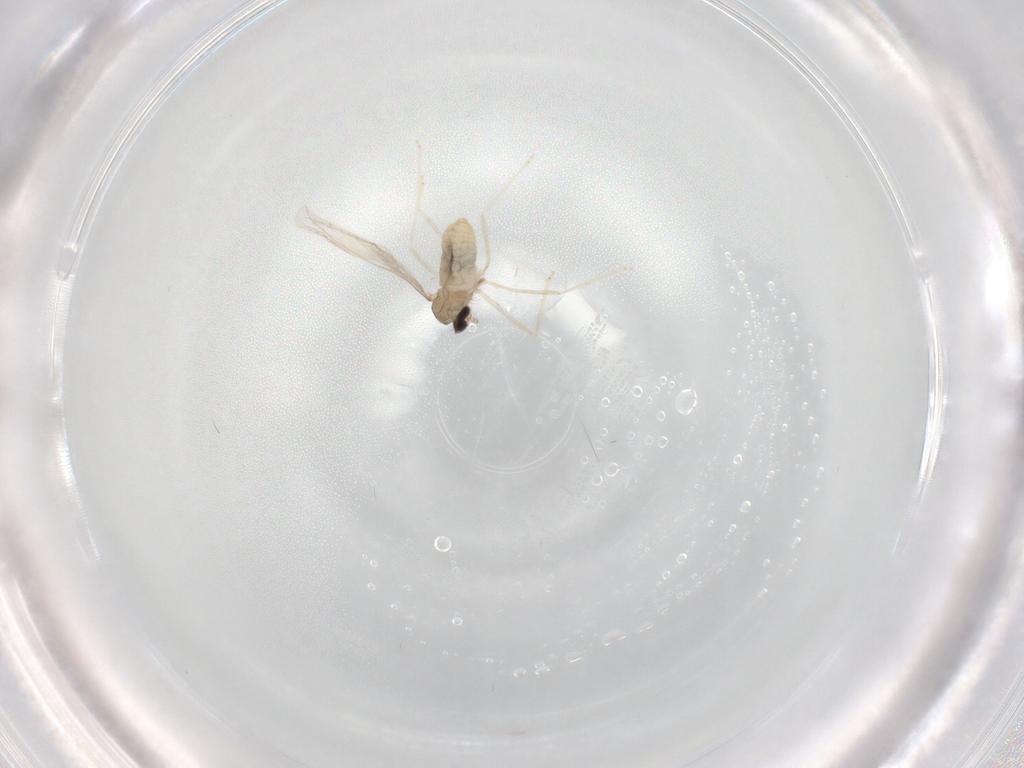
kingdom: Animalia
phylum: Arthropoda
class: Insecta
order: Diptera
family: Cecidomyiidae
